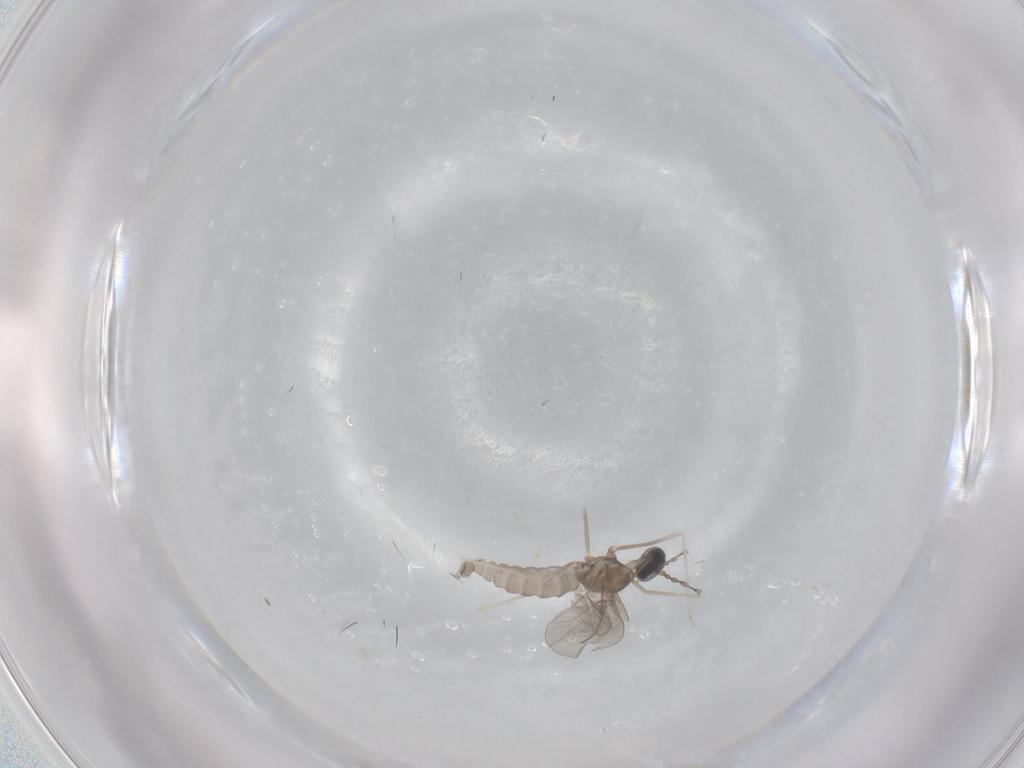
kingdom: Animalia
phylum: Arthropoda
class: Insecta
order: Diptera
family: Cecidomyiidae
